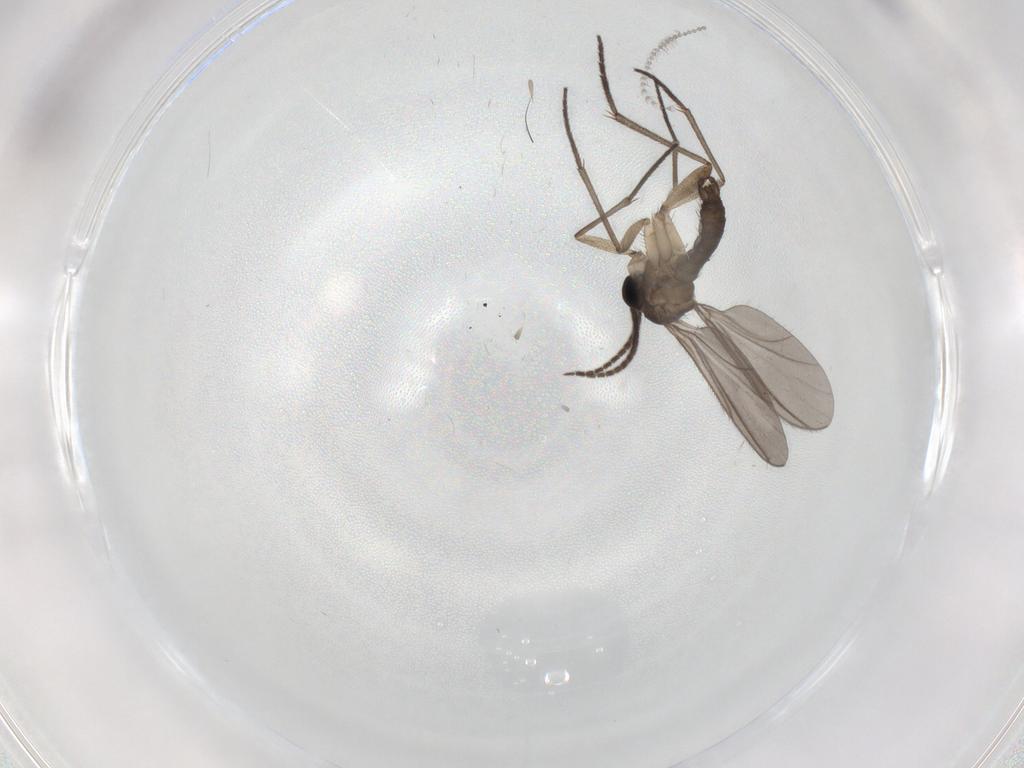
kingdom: Animalia
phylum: Arthropoda
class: Insecta
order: Diptera
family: Sciaridae
